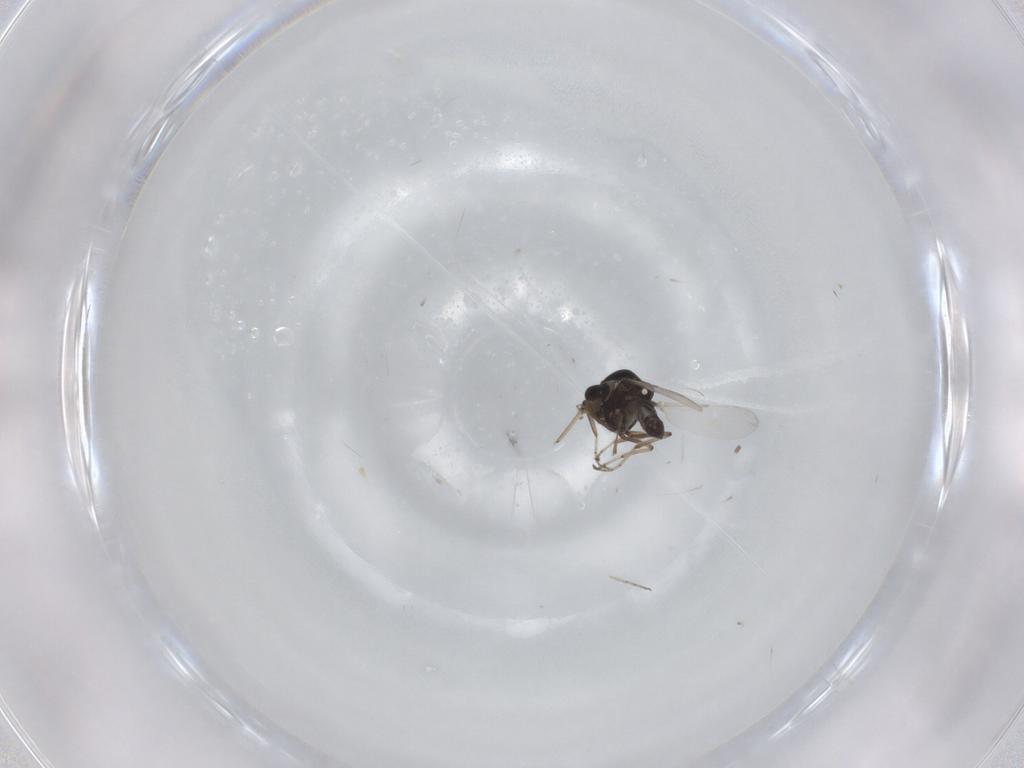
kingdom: Animalia
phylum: Arthropoda
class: Insecta
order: Diptera
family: Ceratopogonidae
